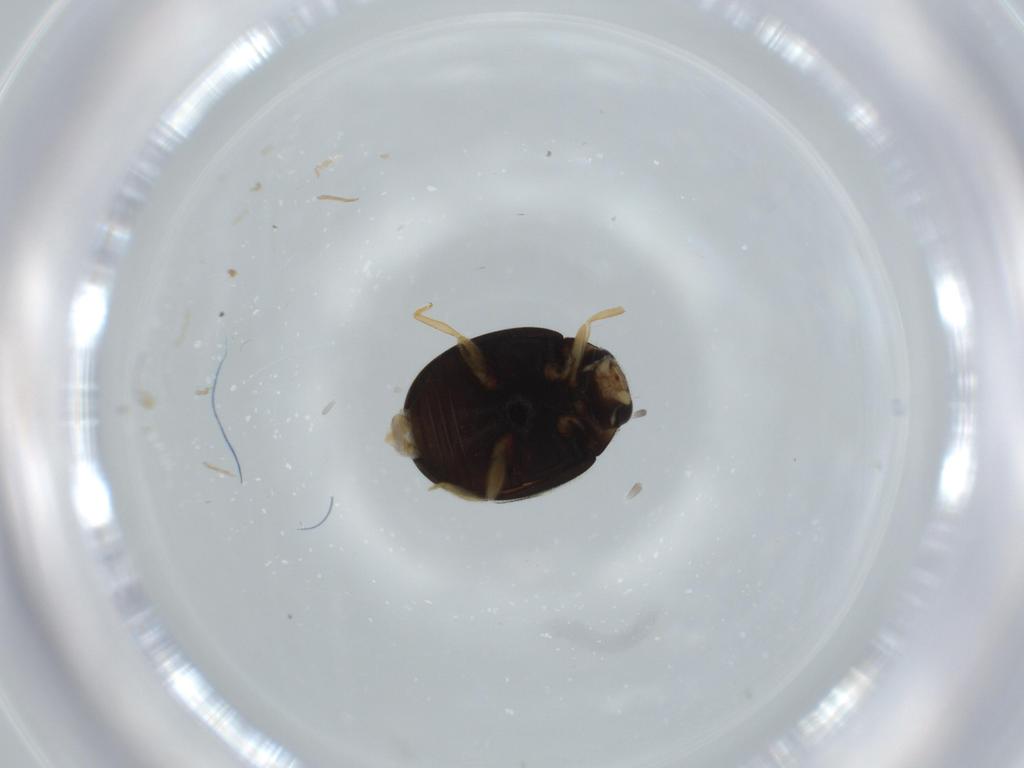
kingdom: Animalia
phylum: Arthropoda
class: Insecta
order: Coleoptera
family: Coccinellidae
